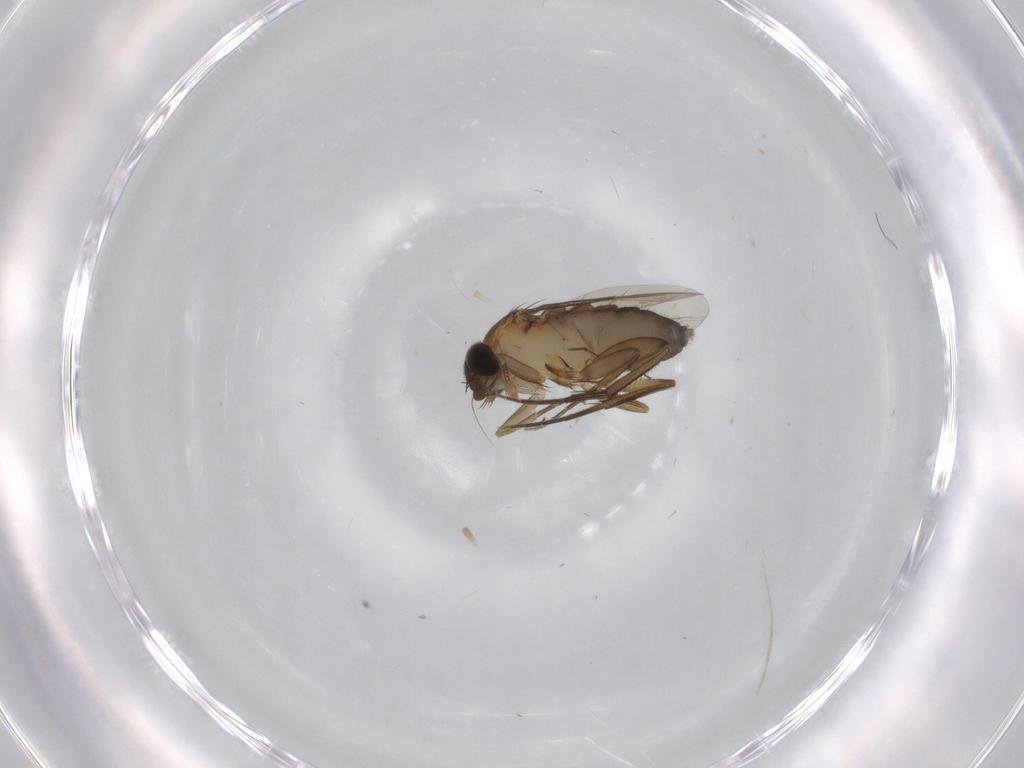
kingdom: Animalia
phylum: Arthropoda
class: Insecta
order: Diptera
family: Phoridae
